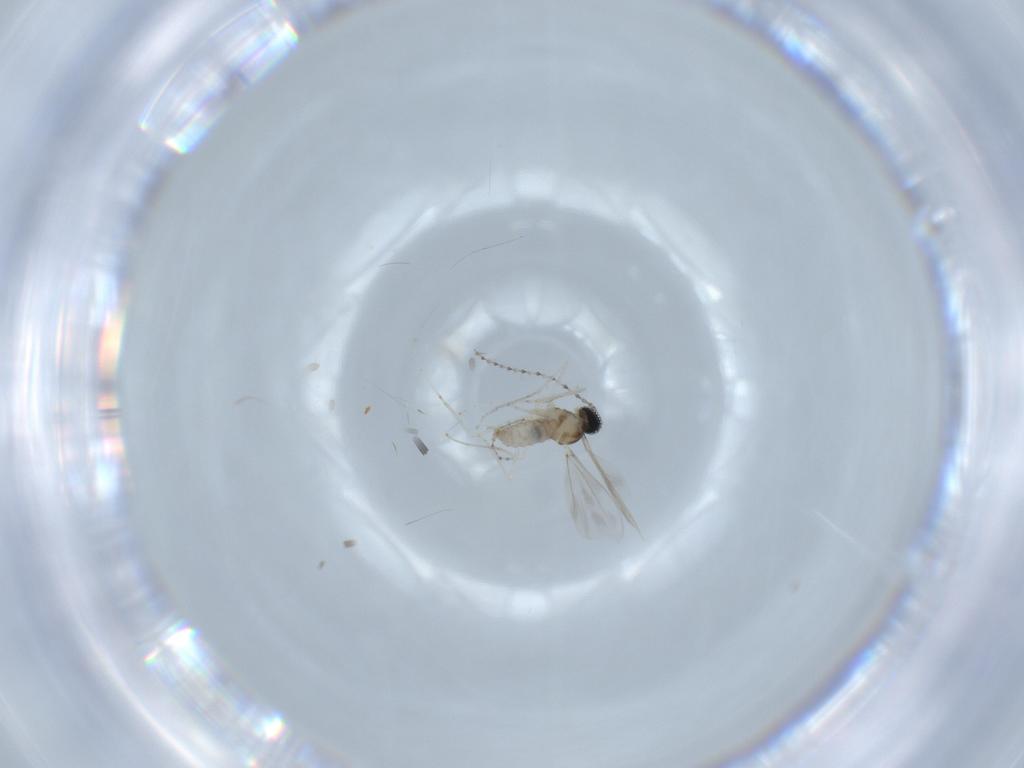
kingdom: Animalia
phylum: Arthropoda
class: Insecta
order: Diptera
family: Cecidomyiidae
